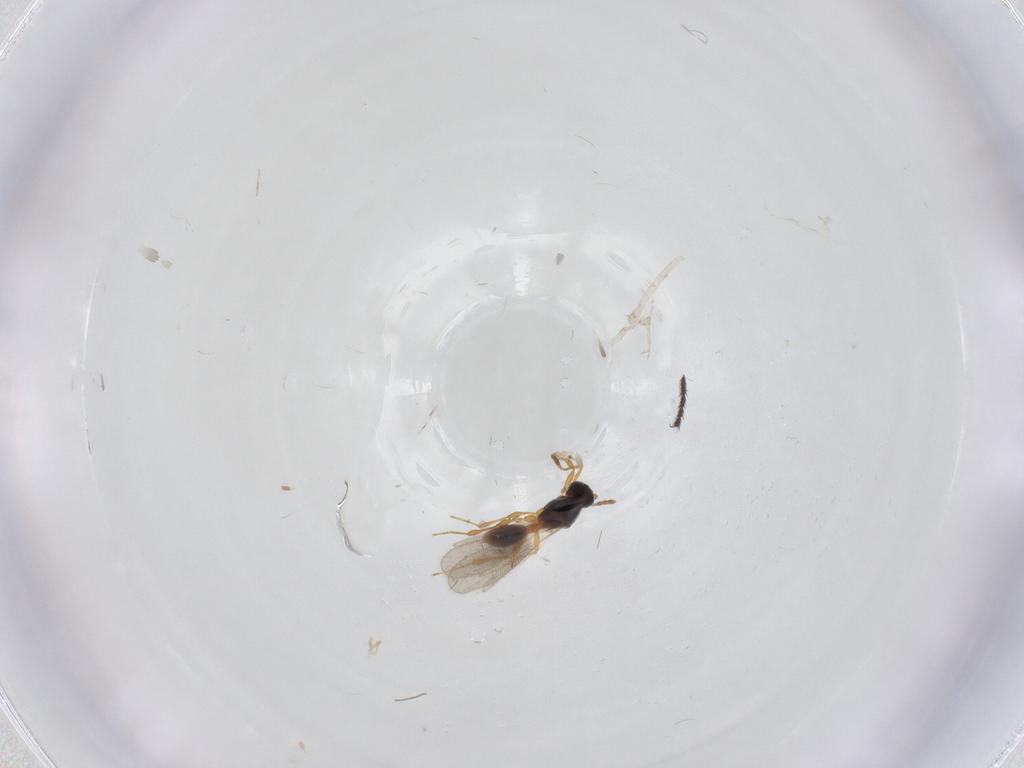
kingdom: Animalia
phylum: Arthropoda
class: Insecta
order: Hymenoptera
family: Platygastridae
